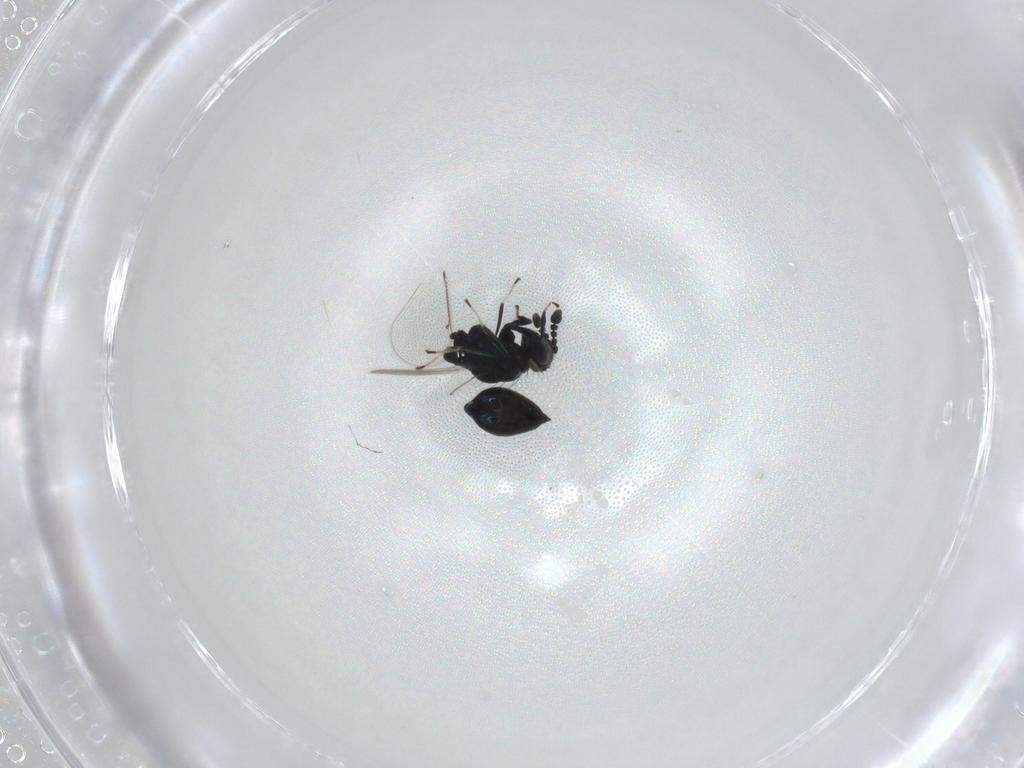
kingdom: Animalia
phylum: Arthropoda
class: Insecta
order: Hymenoptera
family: Eulophidae
